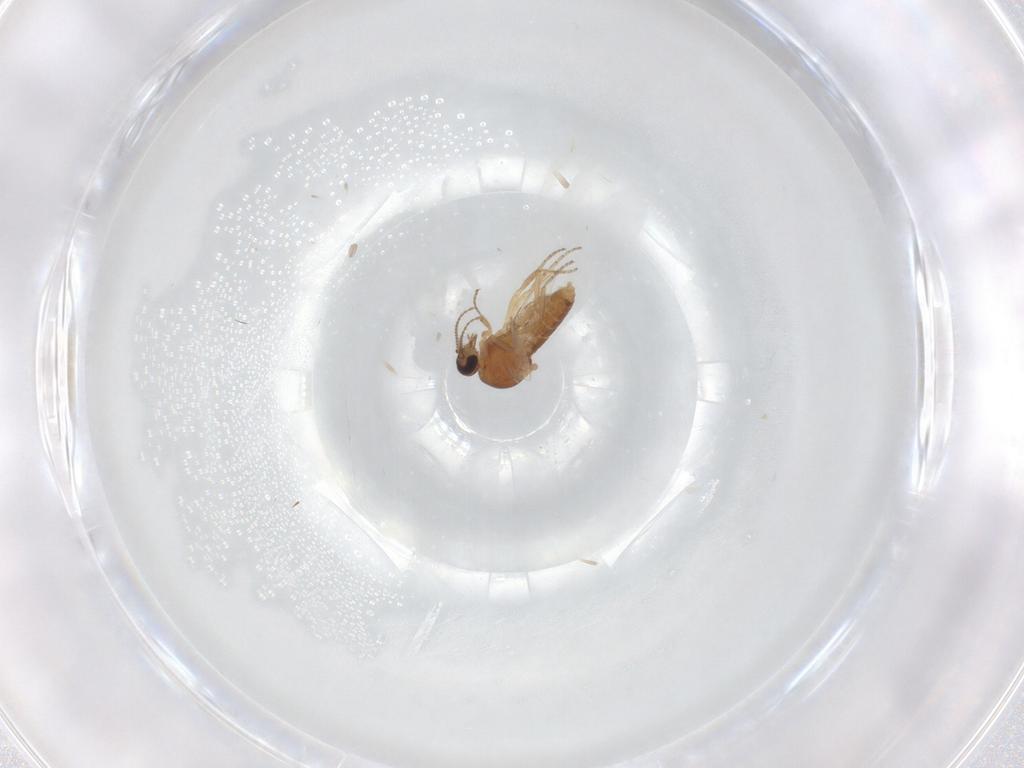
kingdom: Animalia
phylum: Arthropoda
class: Insecta
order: Diptera
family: Ceratopogonidae
